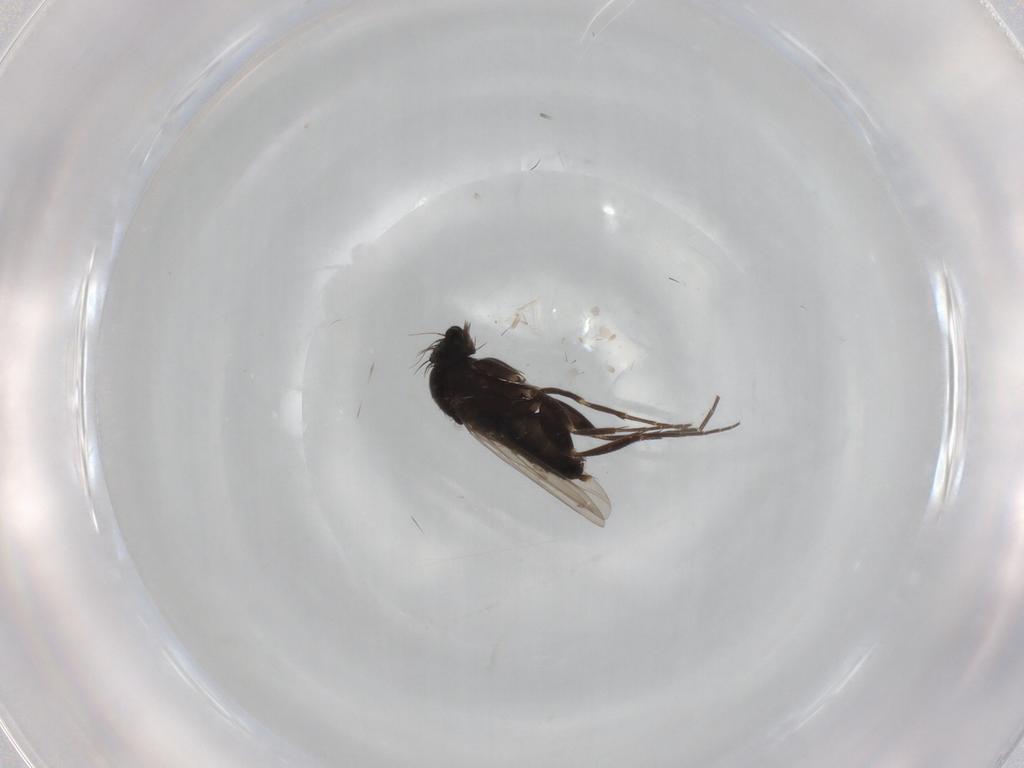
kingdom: Animalia
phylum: Arthropoda
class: Insecta
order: Diptera
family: Phoridae
